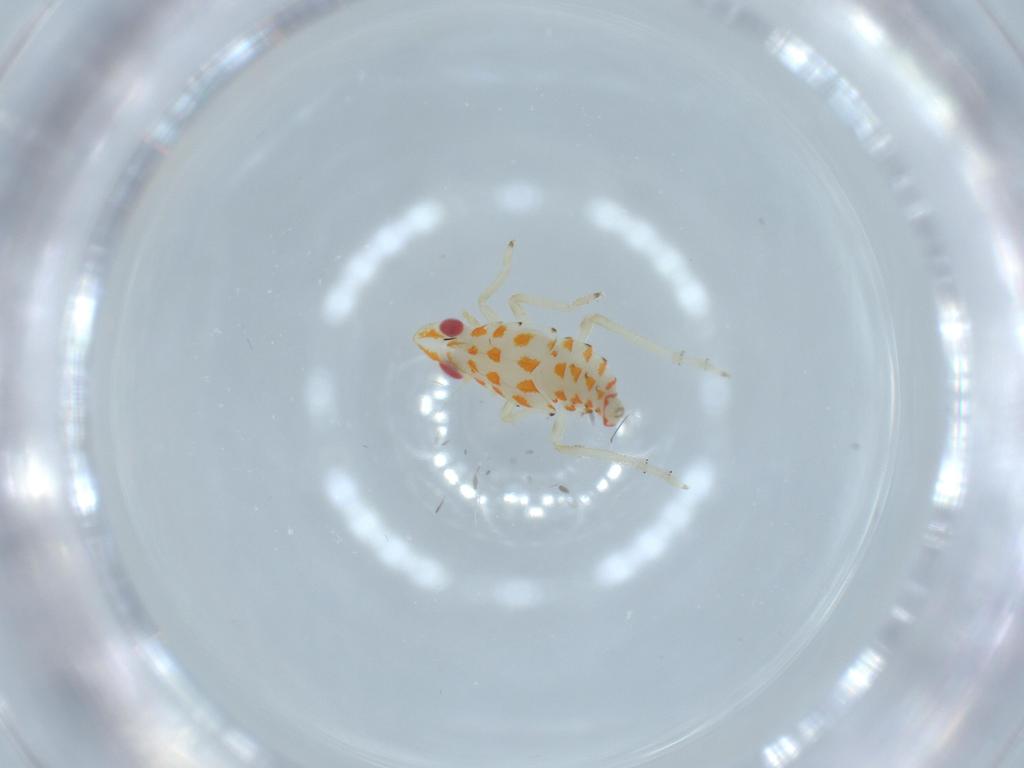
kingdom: Animalia
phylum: Arthropoda
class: Insecta
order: Hemiptera
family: Tropiduchidae
